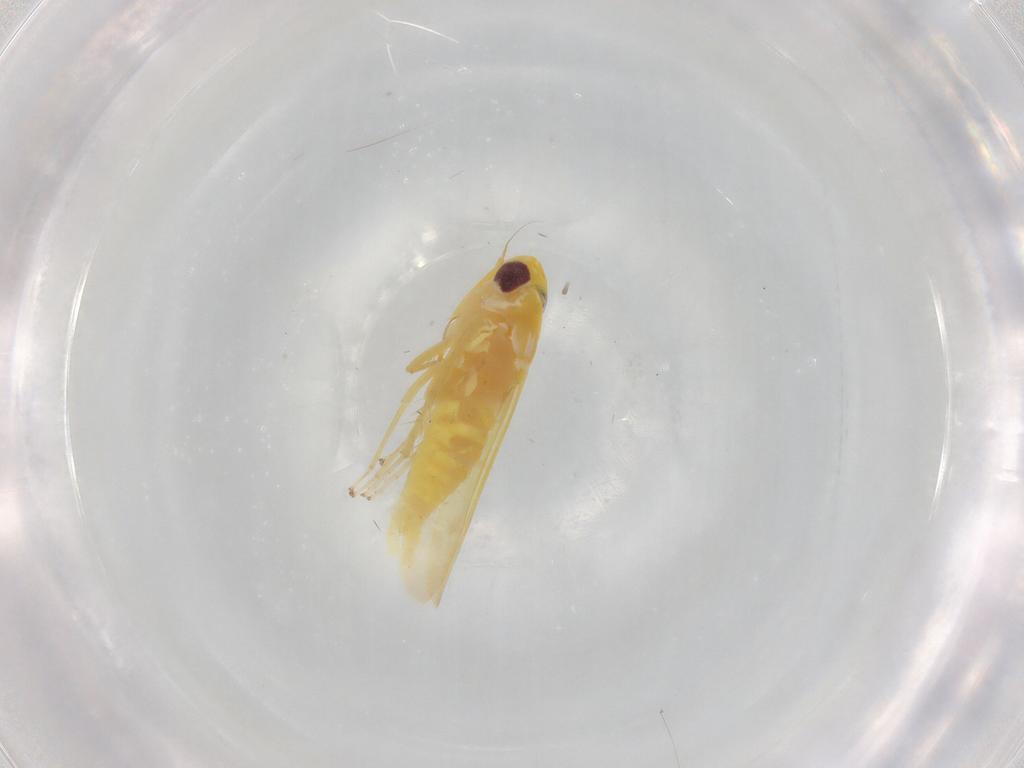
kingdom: Animalia
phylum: Arthropoda
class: Insecta
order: Hemiptera
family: Cicadellidae
